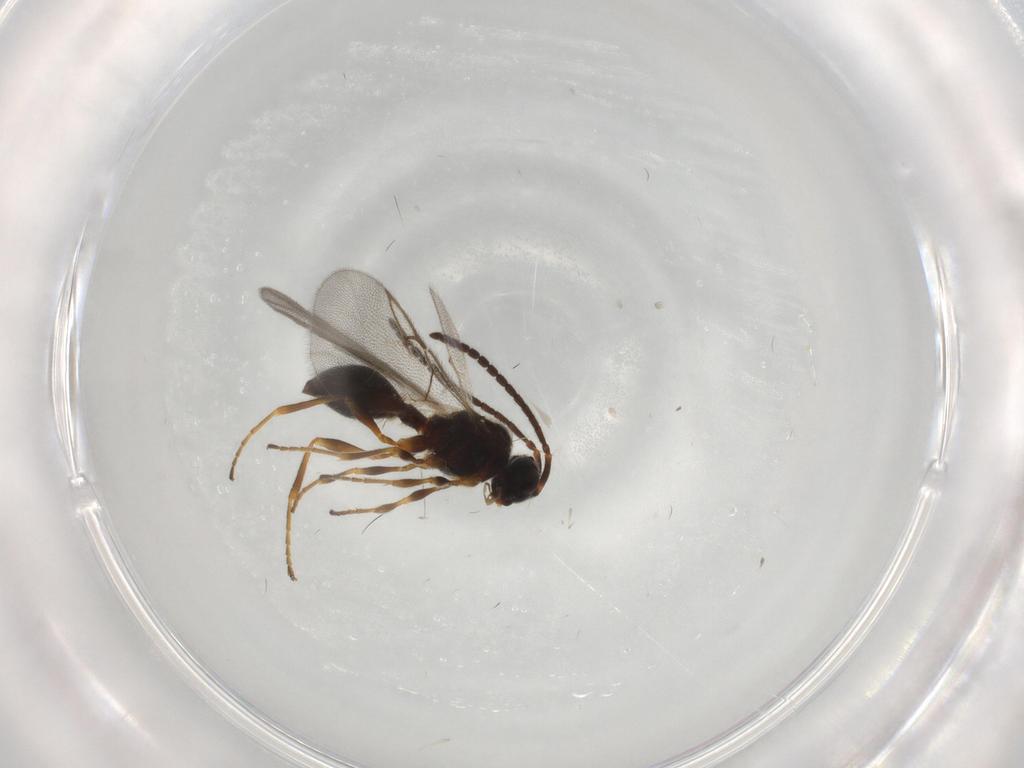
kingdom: Animalia
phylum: Arthropoda
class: Insecta
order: Hymenoptera
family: Diapriidae
